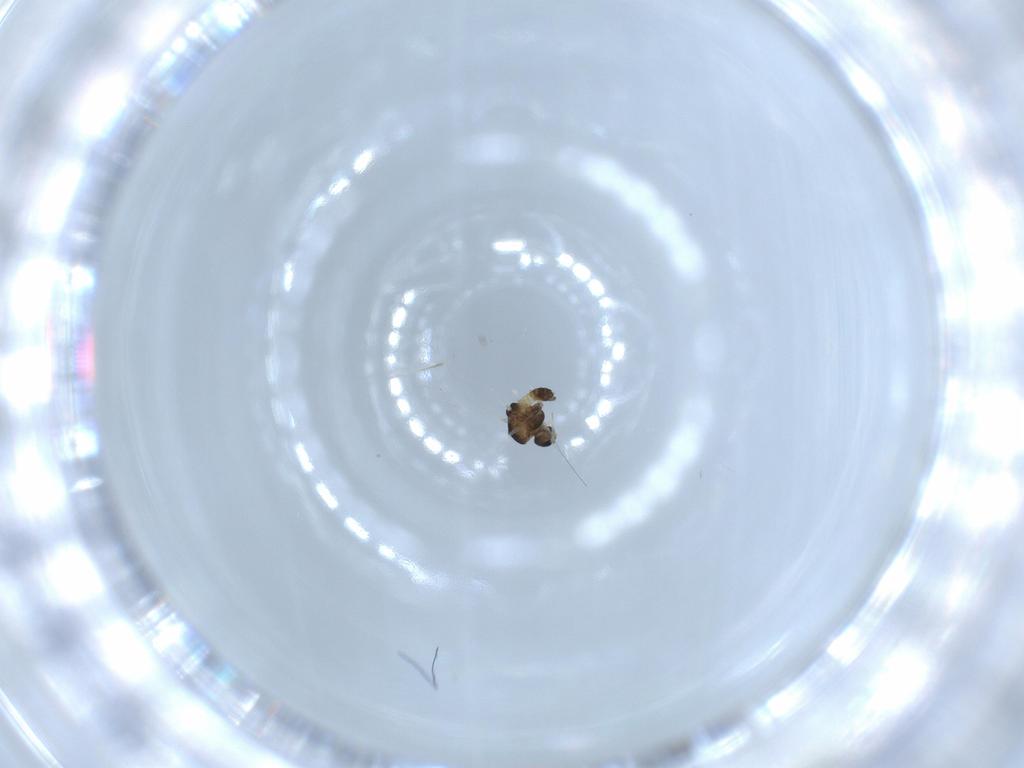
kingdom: Animalia
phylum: Arthropoda
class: Insecta
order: Diptera
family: Chironomidae
